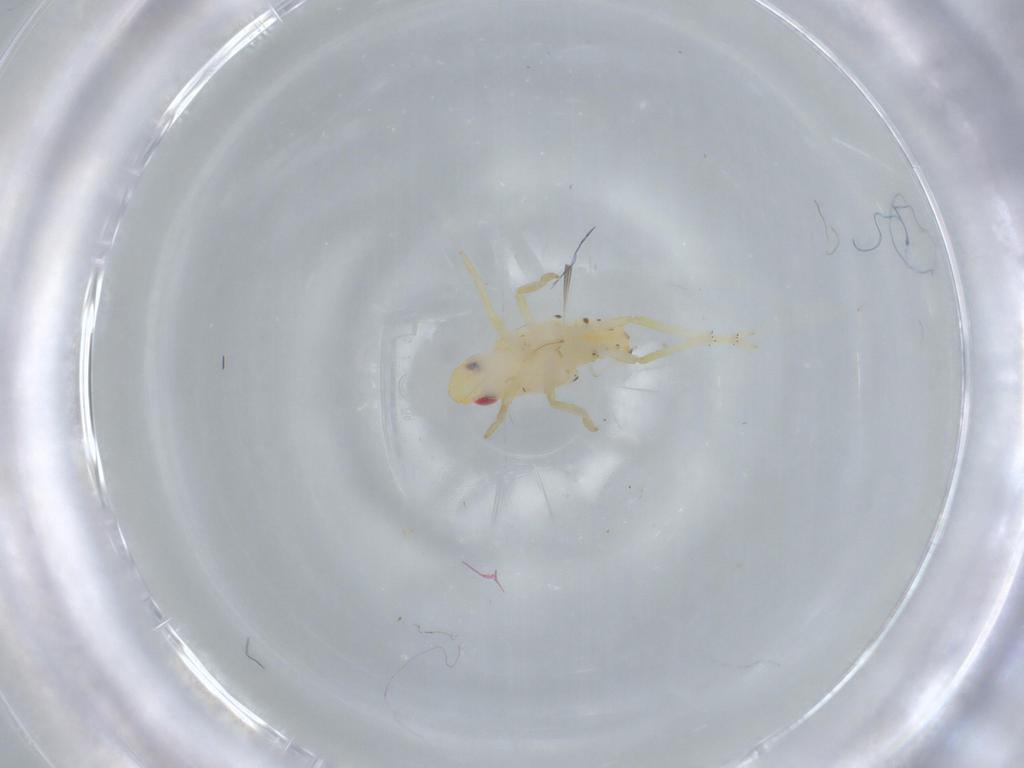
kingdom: Animalia
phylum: Arthropoda
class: Insecta
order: Hemiptera
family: Tropiduchidae
